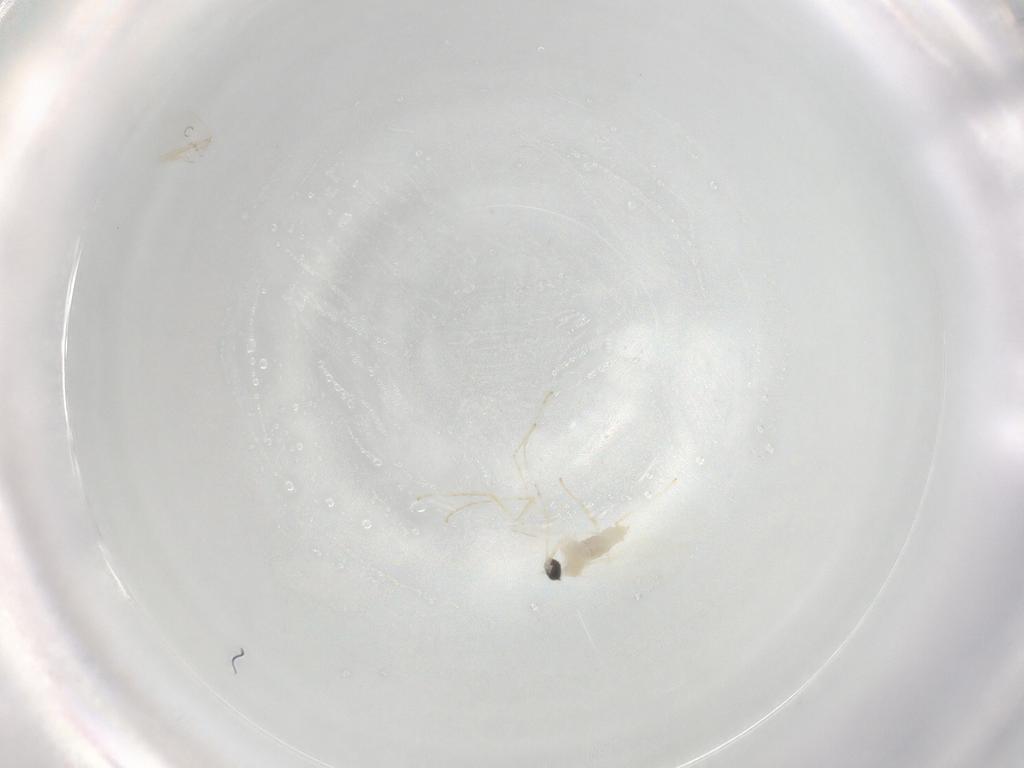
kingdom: Animalia
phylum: Arthropoda
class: Insecta
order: Diptera
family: Cecidomyiidae
